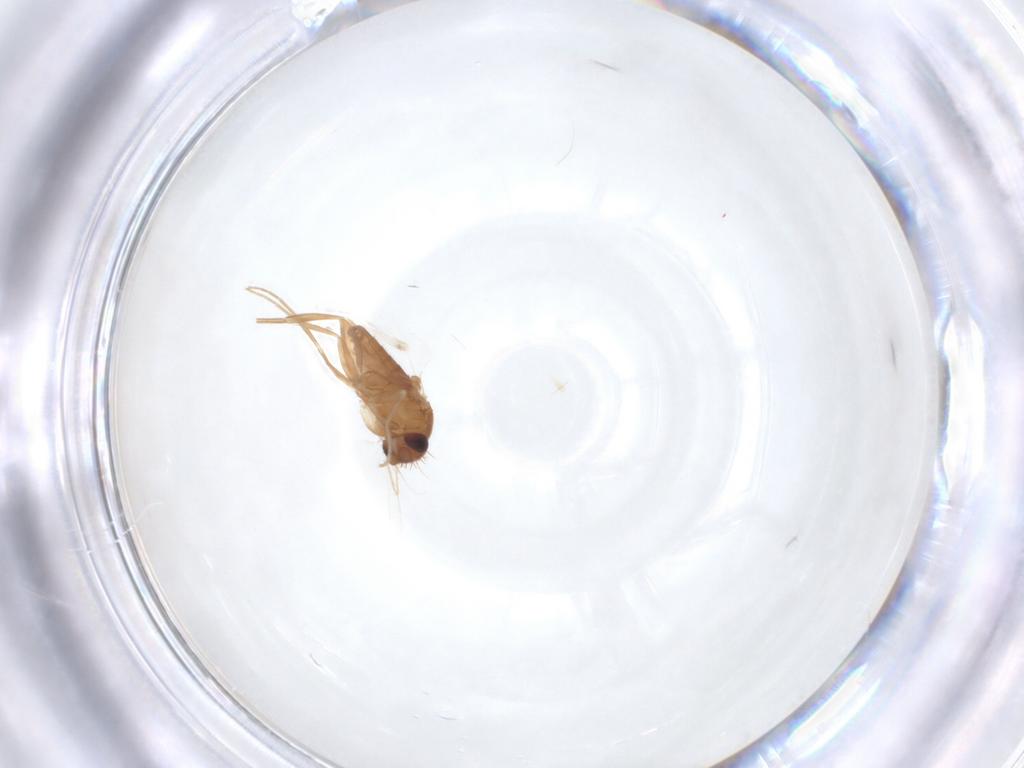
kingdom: Animalia
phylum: Arthropoda
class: Insecta
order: Diptera
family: Phoridae
